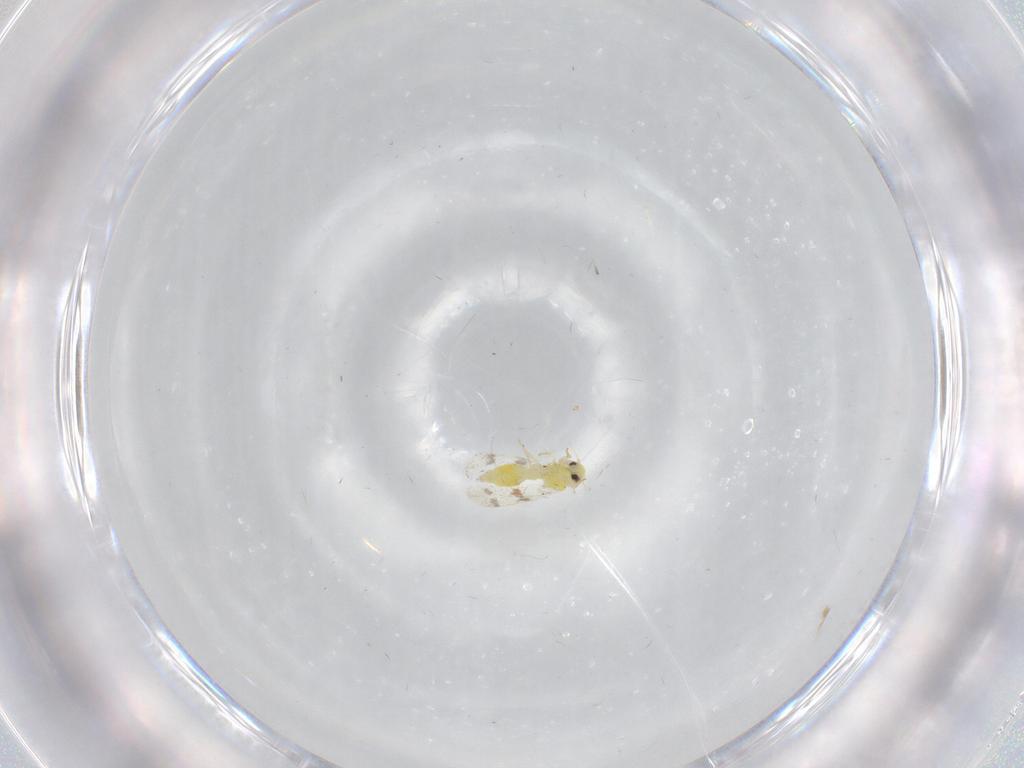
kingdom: Animalia
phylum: Arthropoda
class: Insecta
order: Hemiptera
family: Aleyrodidae
